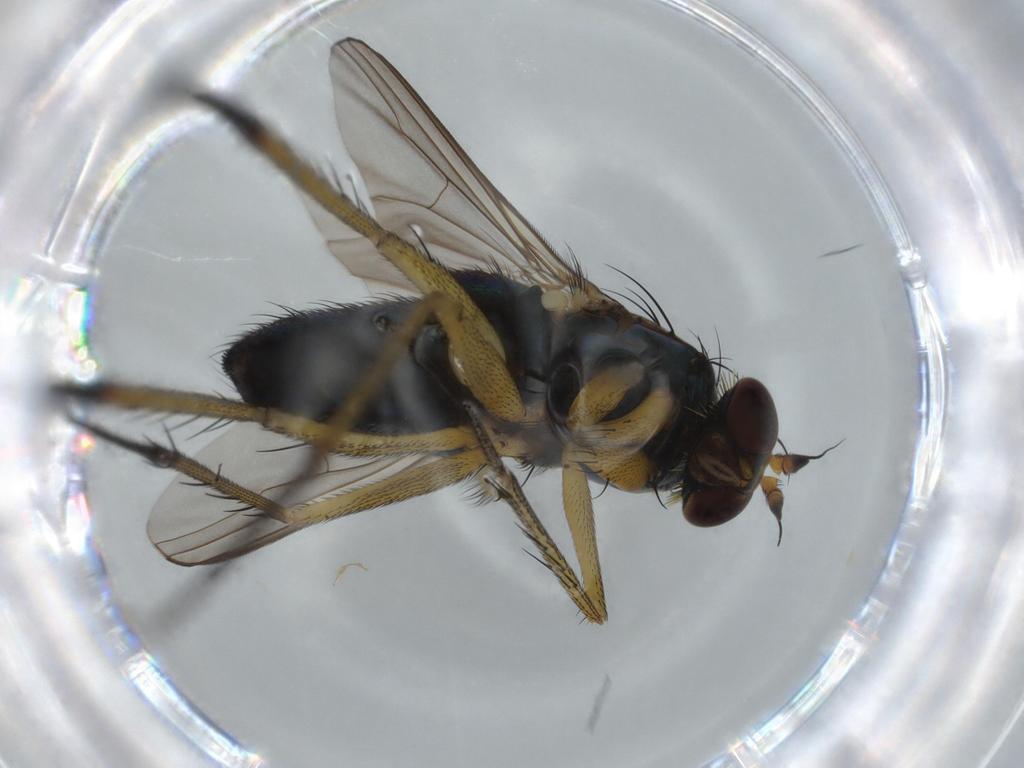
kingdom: Animalia
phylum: Arthropoda
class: Insecta
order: Diptera
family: Dolichopodidae
